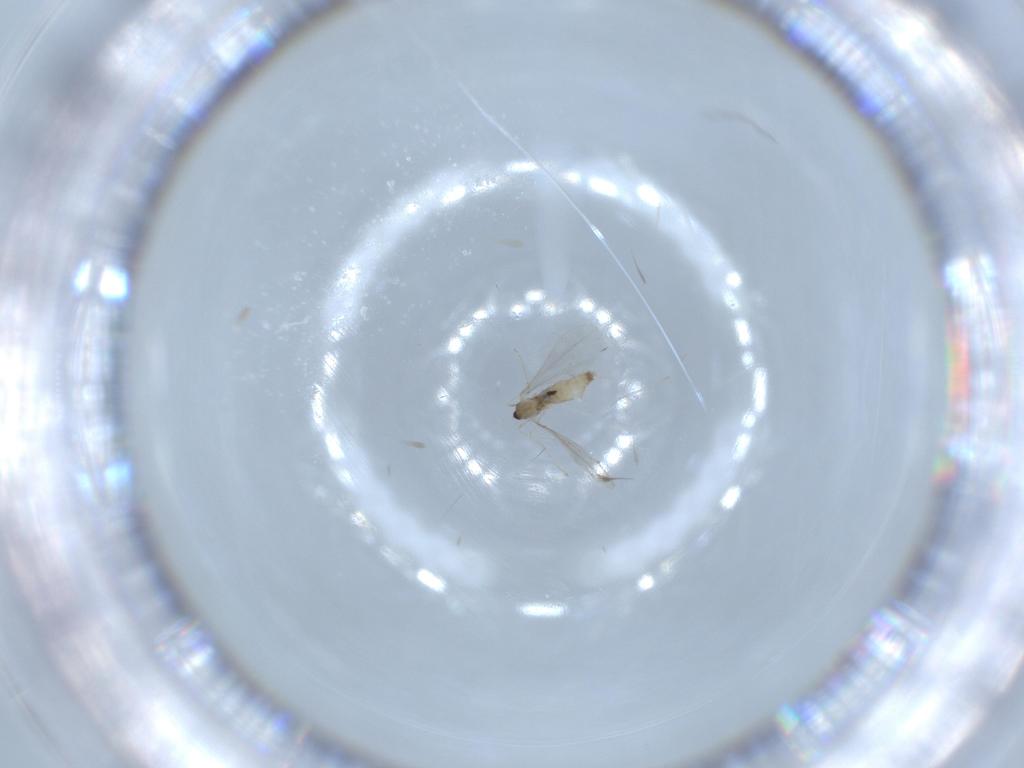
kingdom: Animalia
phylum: Arthropoda
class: Insecta
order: Diptera
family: Cecidomyiidae
